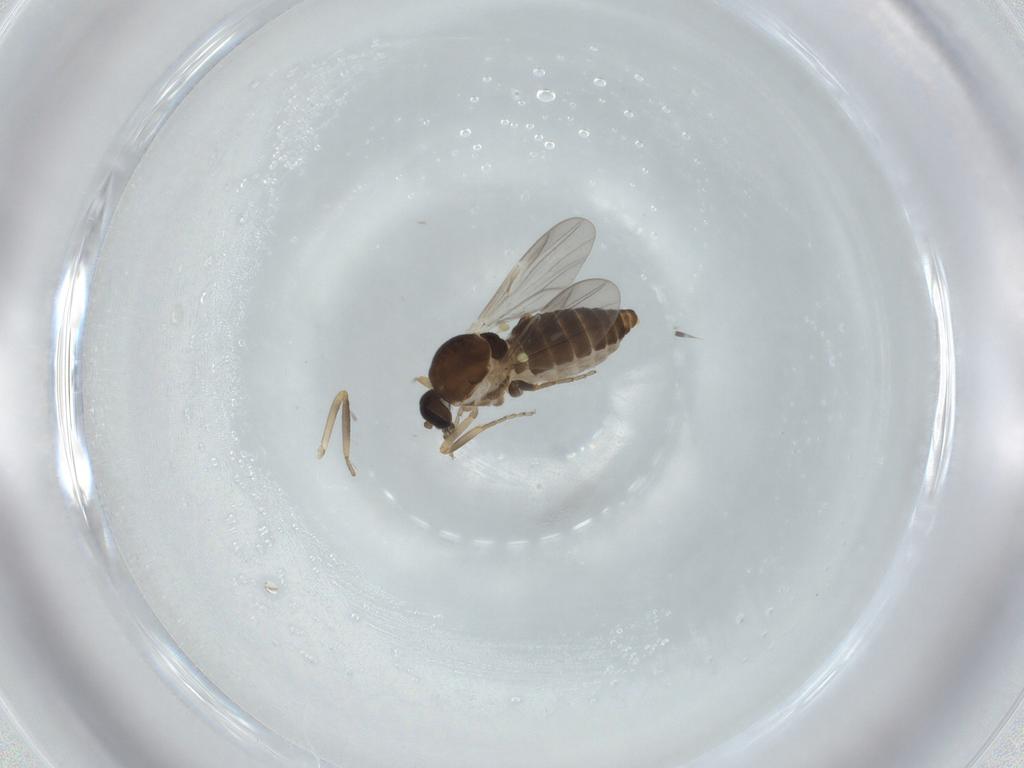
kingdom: Animalia
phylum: Arthropoda
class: Insecta
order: Diptera
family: Ceratopogonidae
